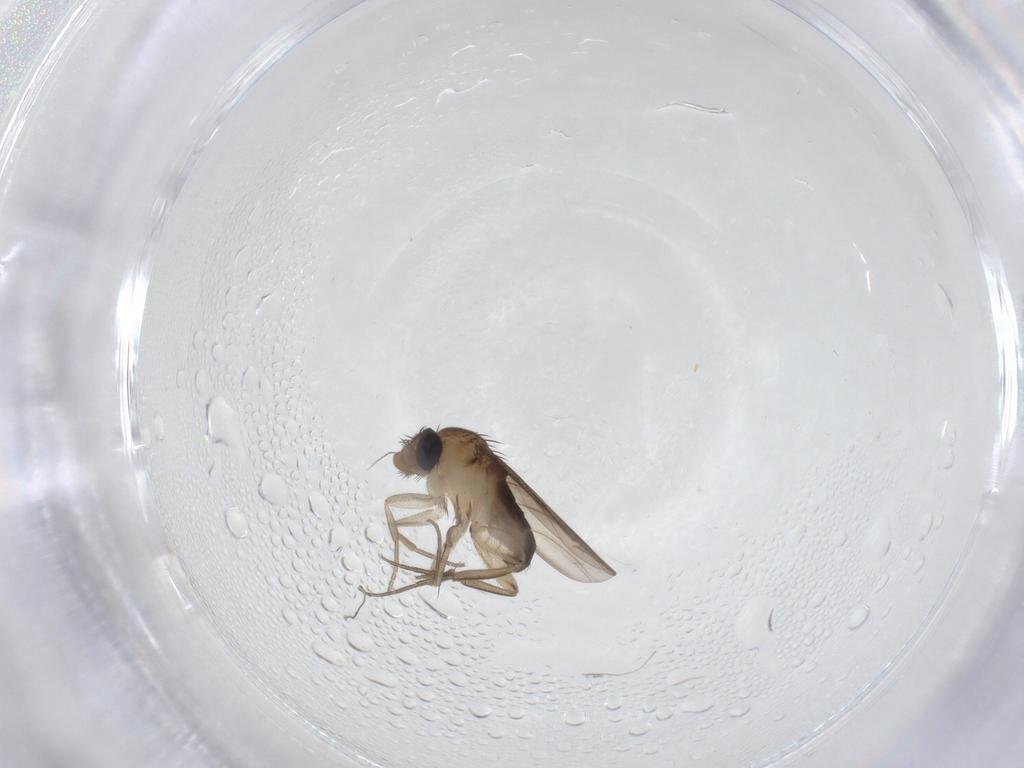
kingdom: Animalia
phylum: Arthropoda
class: Insecta
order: Diptera
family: Phoridae
